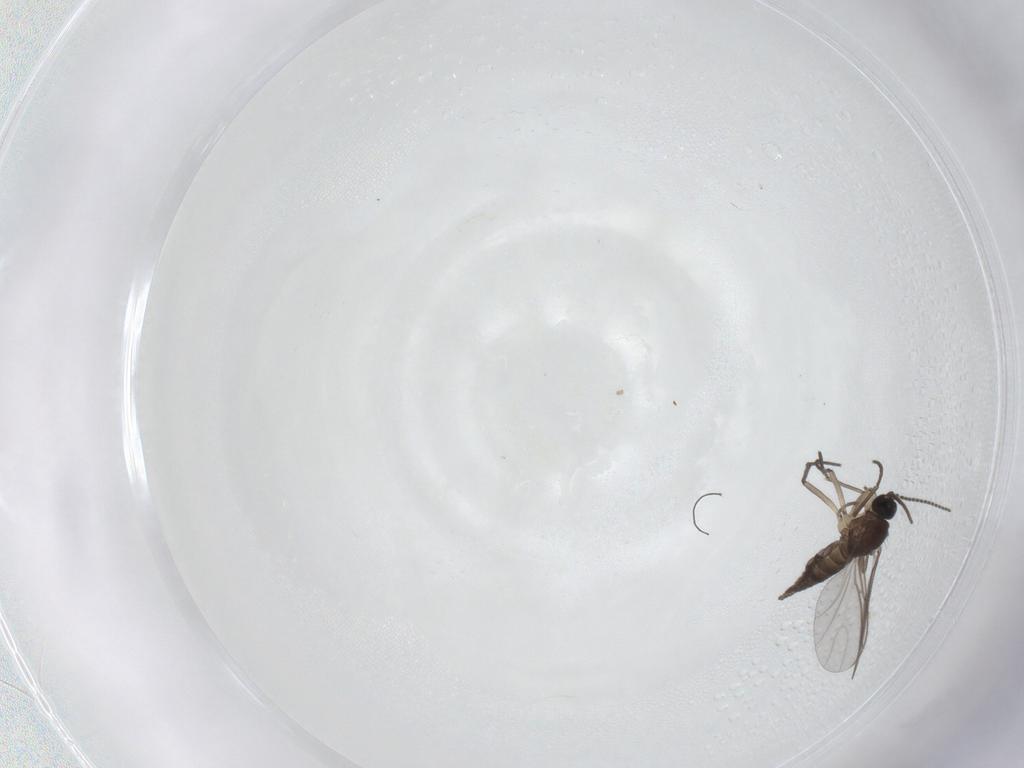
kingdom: Animalia
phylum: Arthropoda
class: Insecta
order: Diptera
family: Sciaridae
